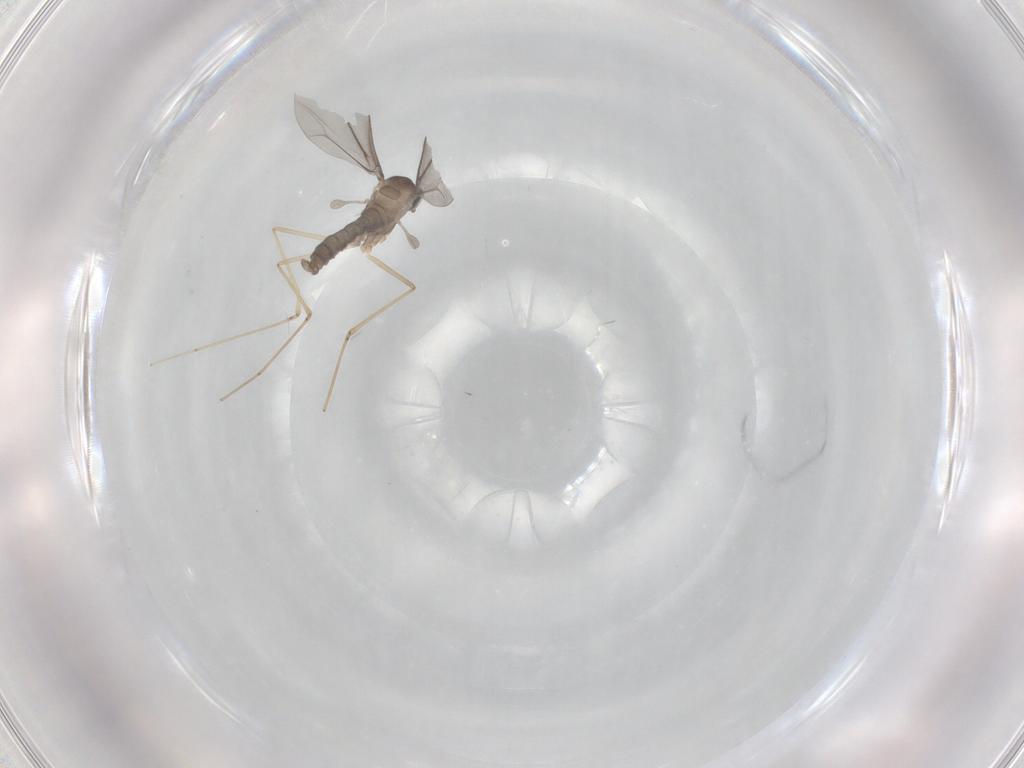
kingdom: Animalia
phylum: Arthropoda
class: Insecta
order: Diptera
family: Cecidomyiidae
